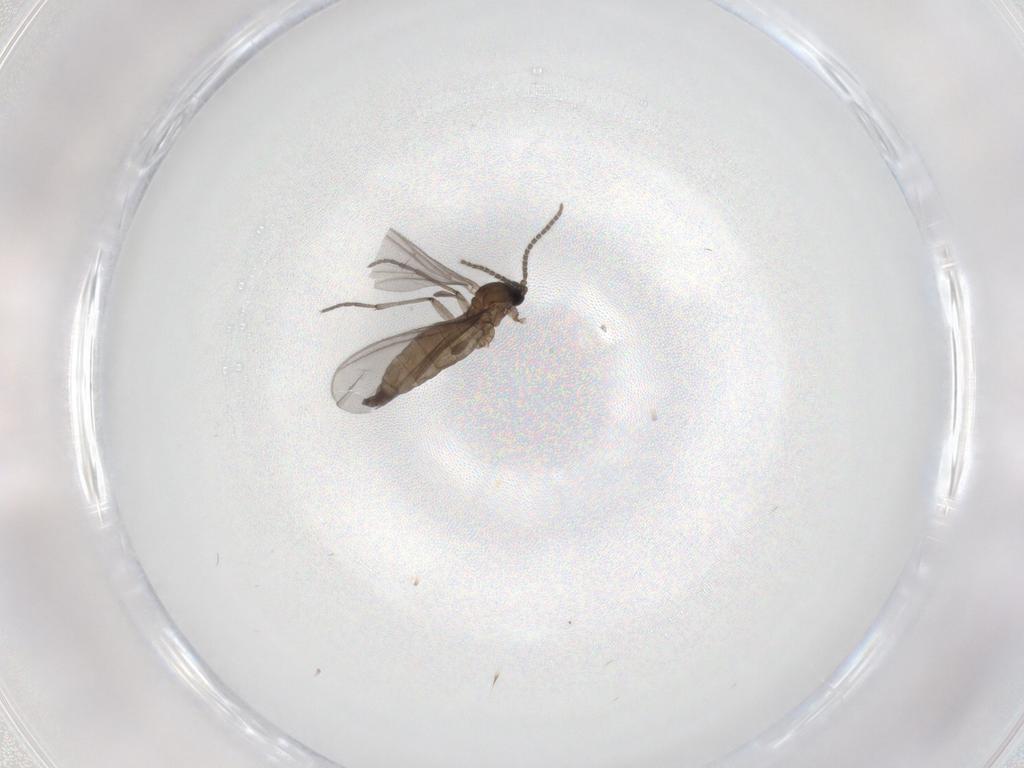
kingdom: Animalia
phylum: Arthropoda
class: Insecta
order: Diptera
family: Sciaridae
